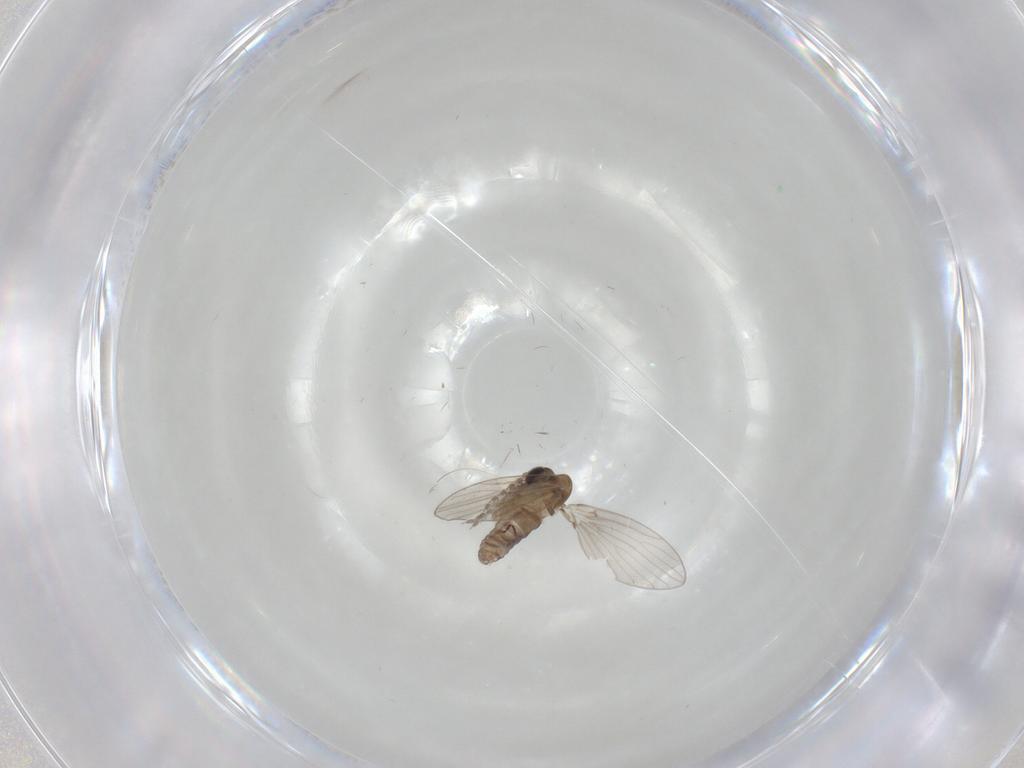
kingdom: Animalia
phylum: Arthropoda
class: Insecta
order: Diptera
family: Psychodidae
